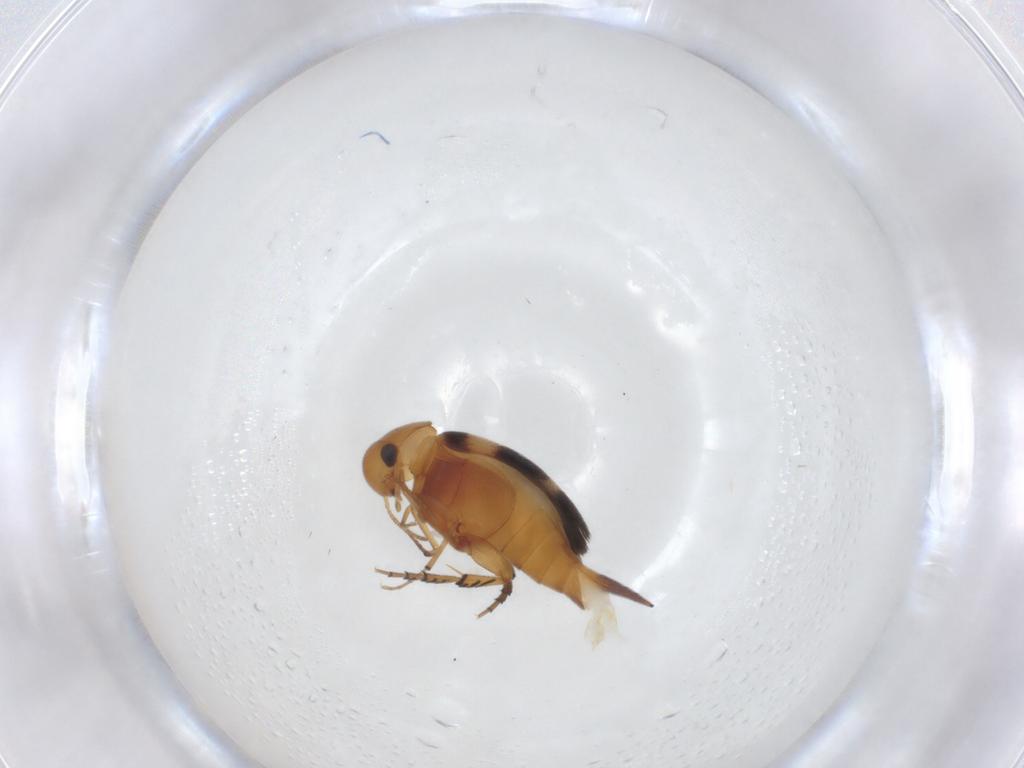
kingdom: Animalia
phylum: Arthropoda
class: Insecta
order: Coleoptera
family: Mordellidae
